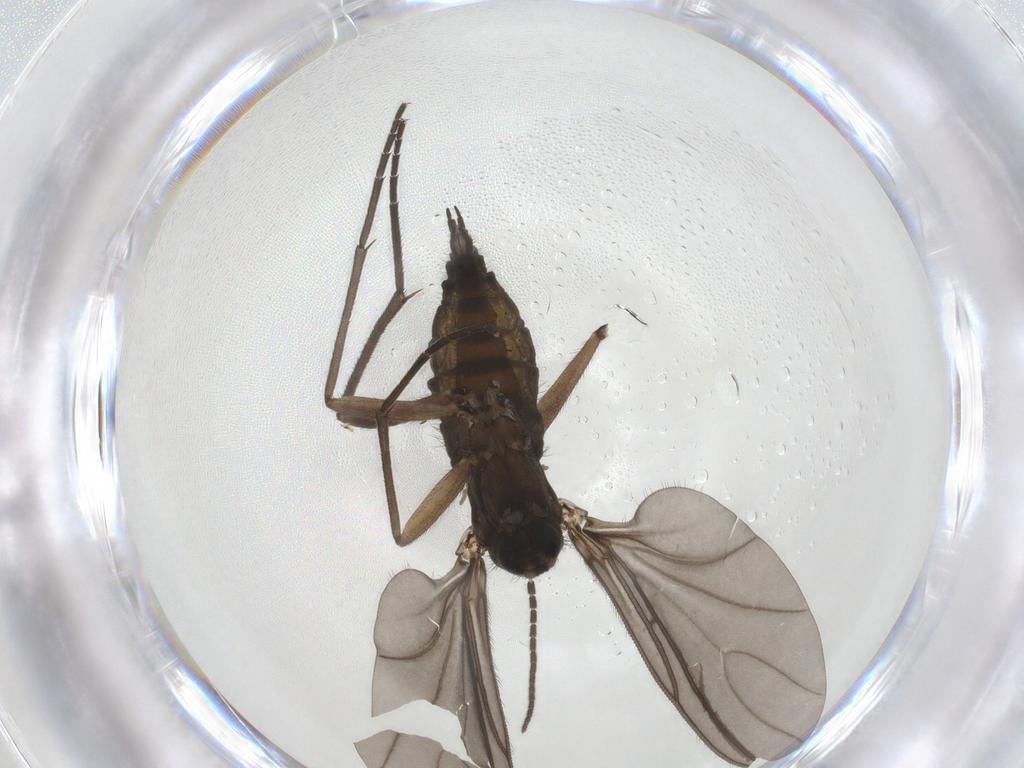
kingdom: Animalia
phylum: Arthropoda
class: Insecta
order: Diptera
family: Sciaridae
